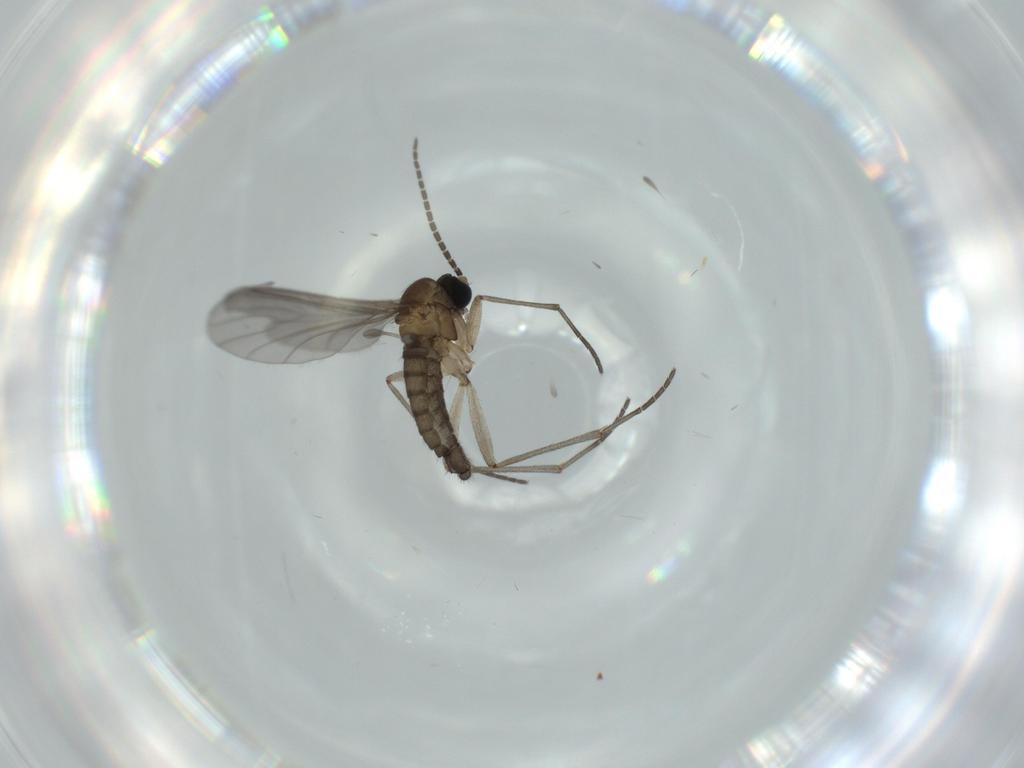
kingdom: Animalia
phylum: Arthropoda
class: Insecta
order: Diptera
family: Sciaridae
